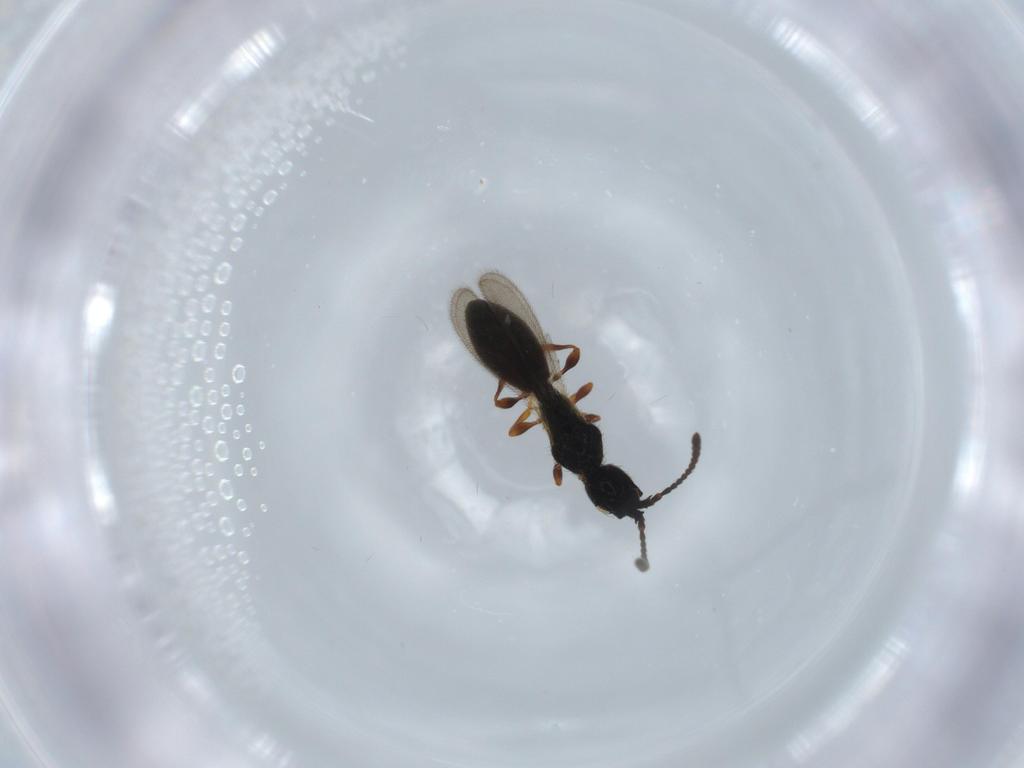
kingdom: Animalia
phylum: Arthropoda
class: Insecta
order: Hymenoptera
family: Diapriidae
